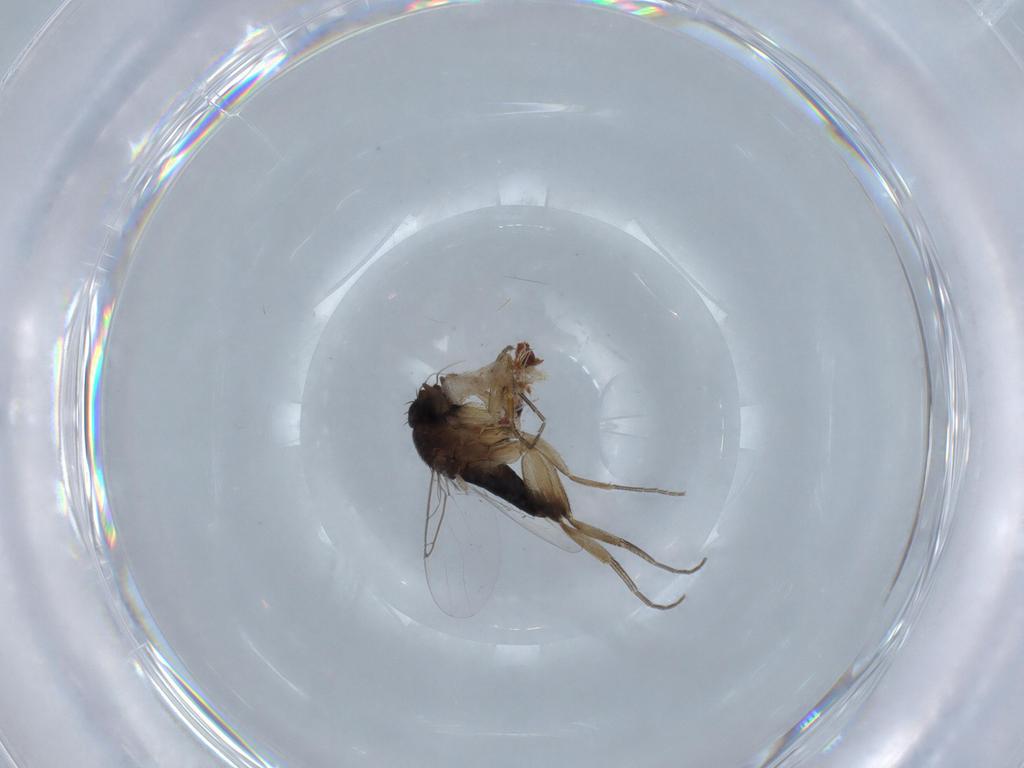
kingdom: Animalia
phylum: Arthropoda
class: Insecta
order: Diptera
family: Phoridae
